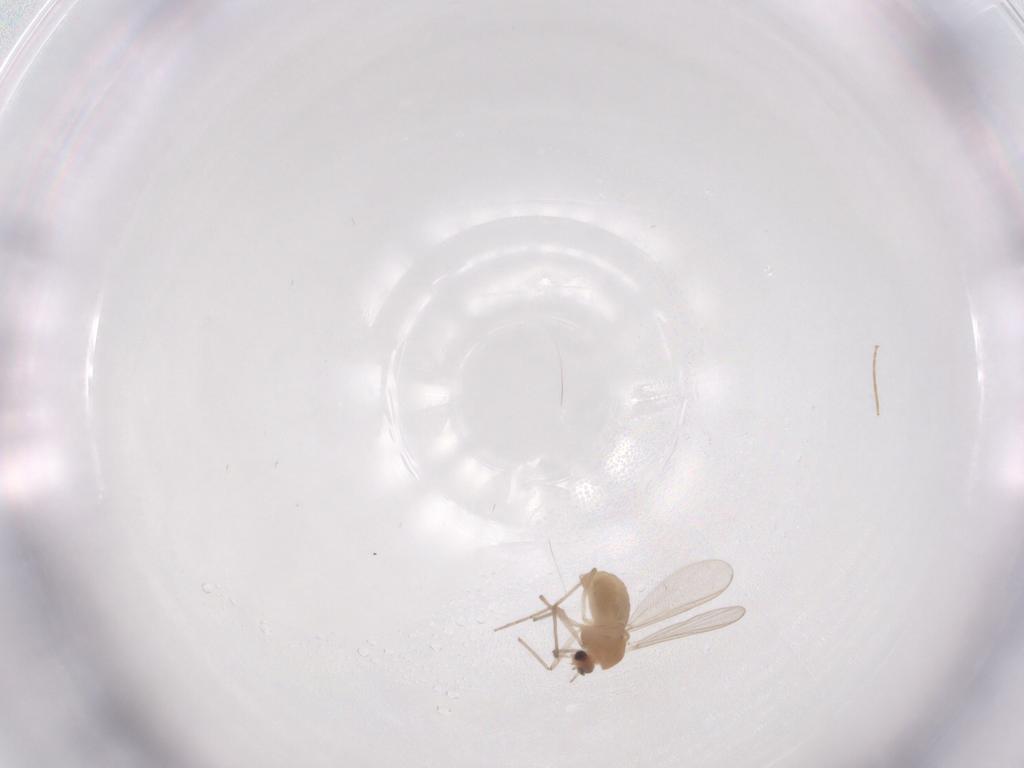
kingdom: Animalia
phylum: Arthropoda
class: Insecta
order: Diptera
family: Chironomidae
